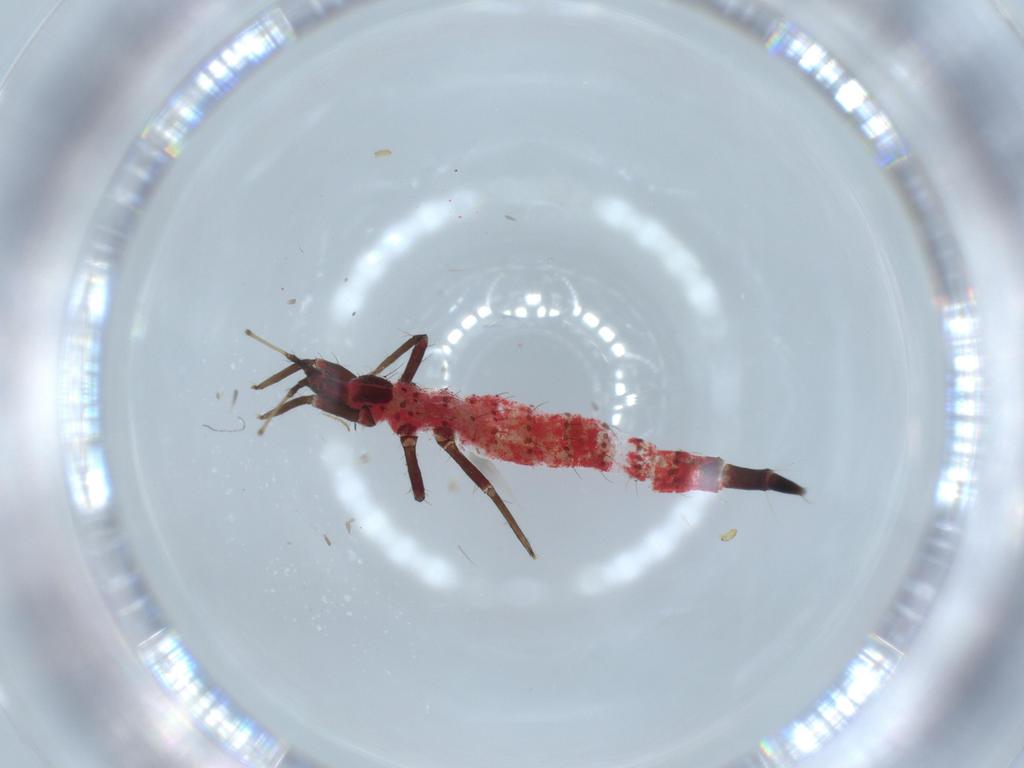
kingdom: Animalia
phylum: Arthropoda
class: Insecta
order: Thysanoptera
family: Phlaeothripidae
